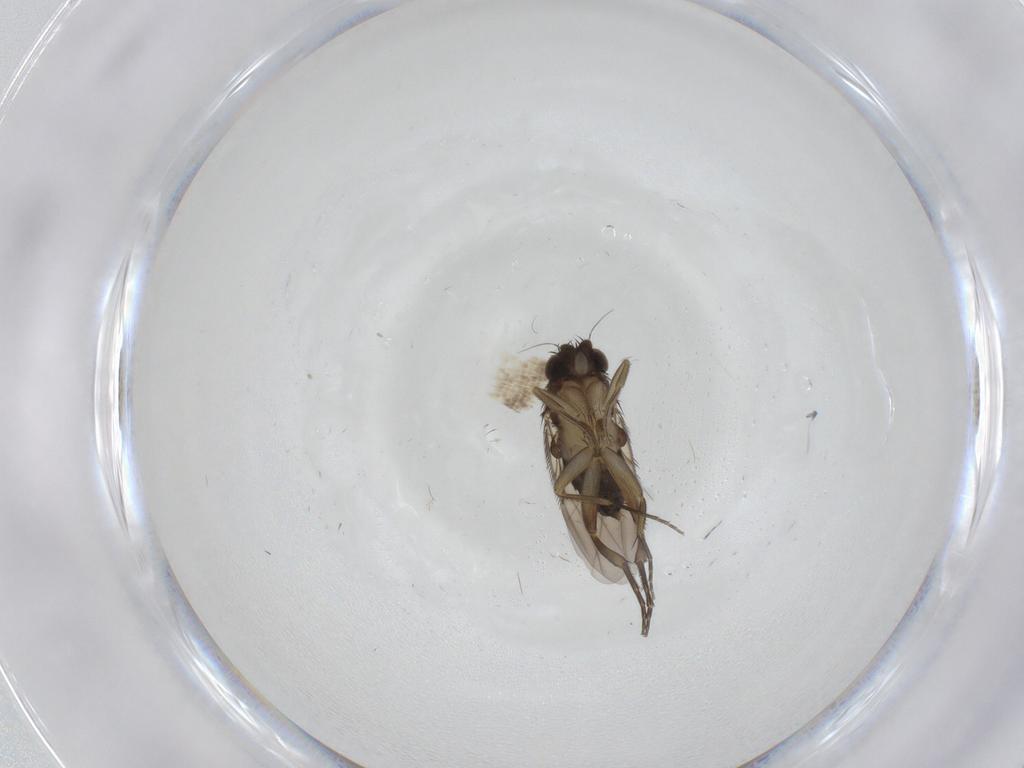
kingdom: Animalia
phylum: Arthropoda
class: Insecta
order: Diptera
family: Phoridae
